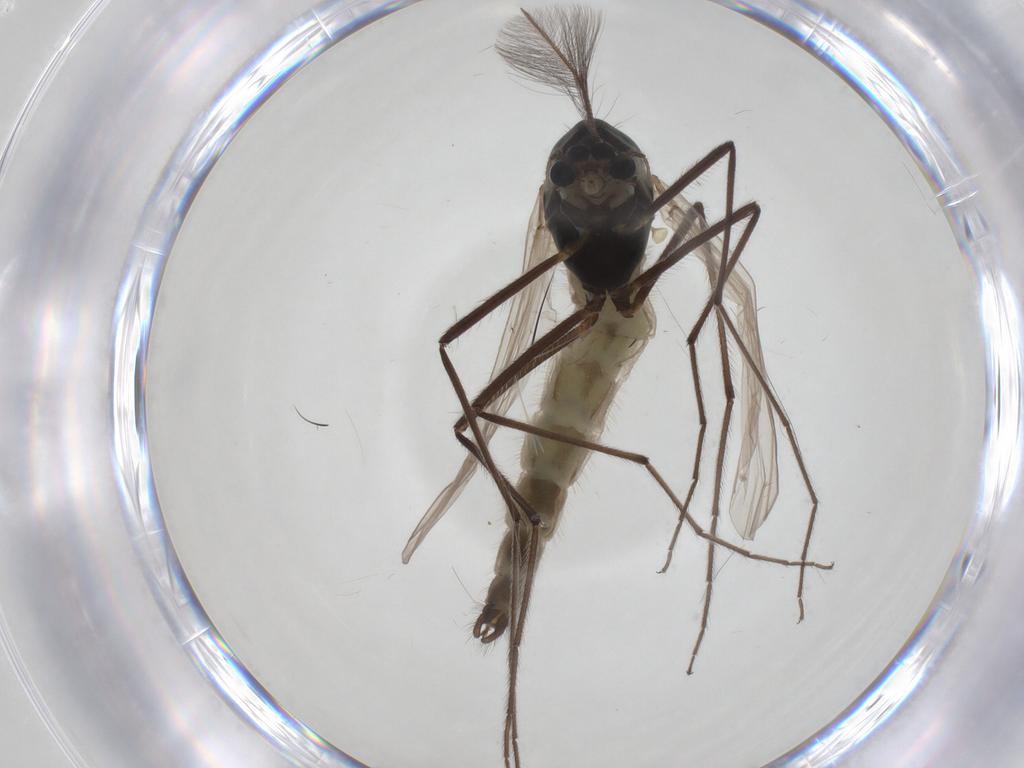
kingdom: Animalia
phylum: Arthropoda
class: Insecta
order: Diptera
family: Chironomidae
